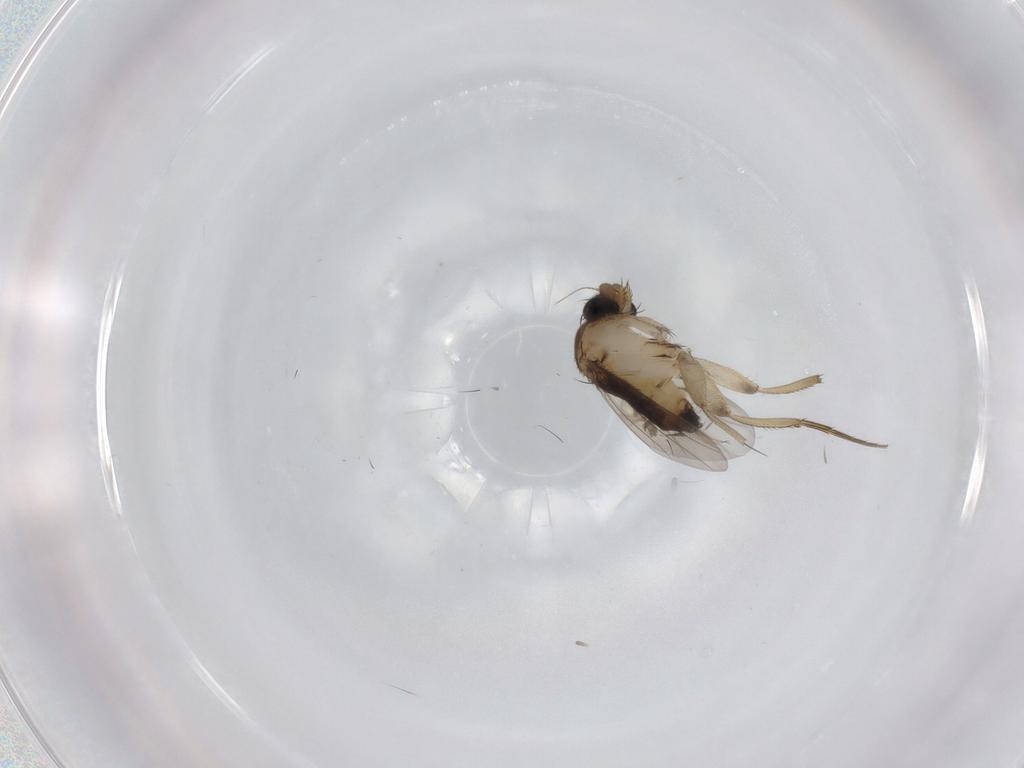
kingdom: Animalia
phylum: Arthropoda
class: Insecta
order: Diptera
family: Phoridae
